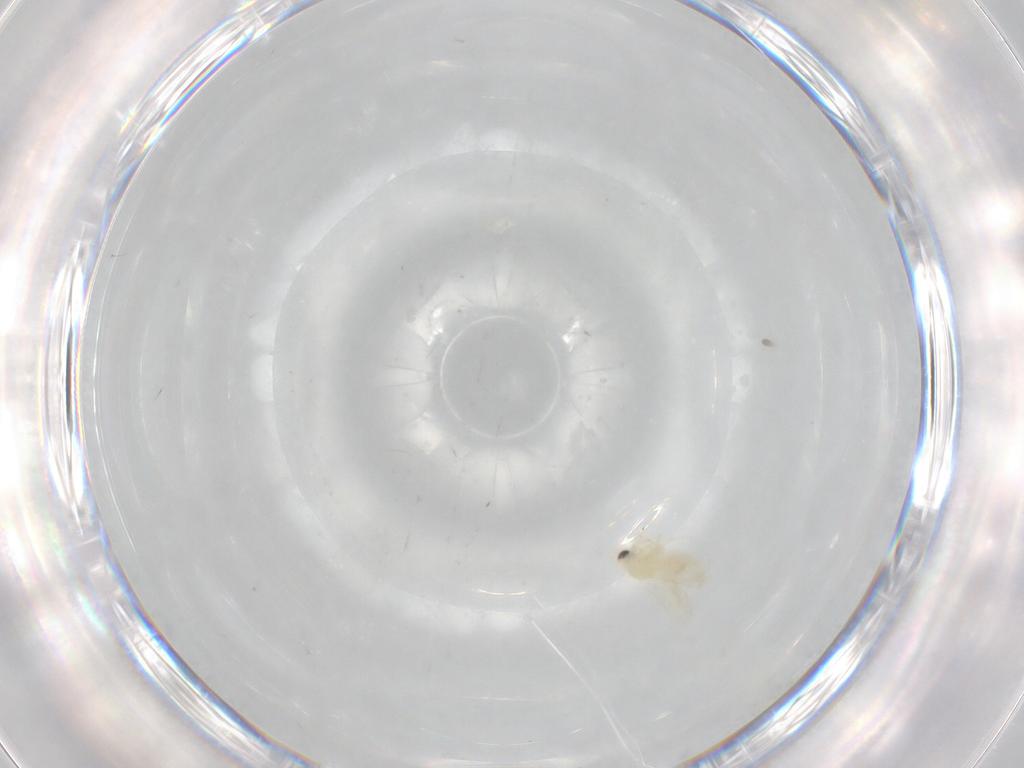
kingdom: Animalia
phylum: Arthropoda
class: Insecta
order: Hemiptera
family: Aleyrodidae
